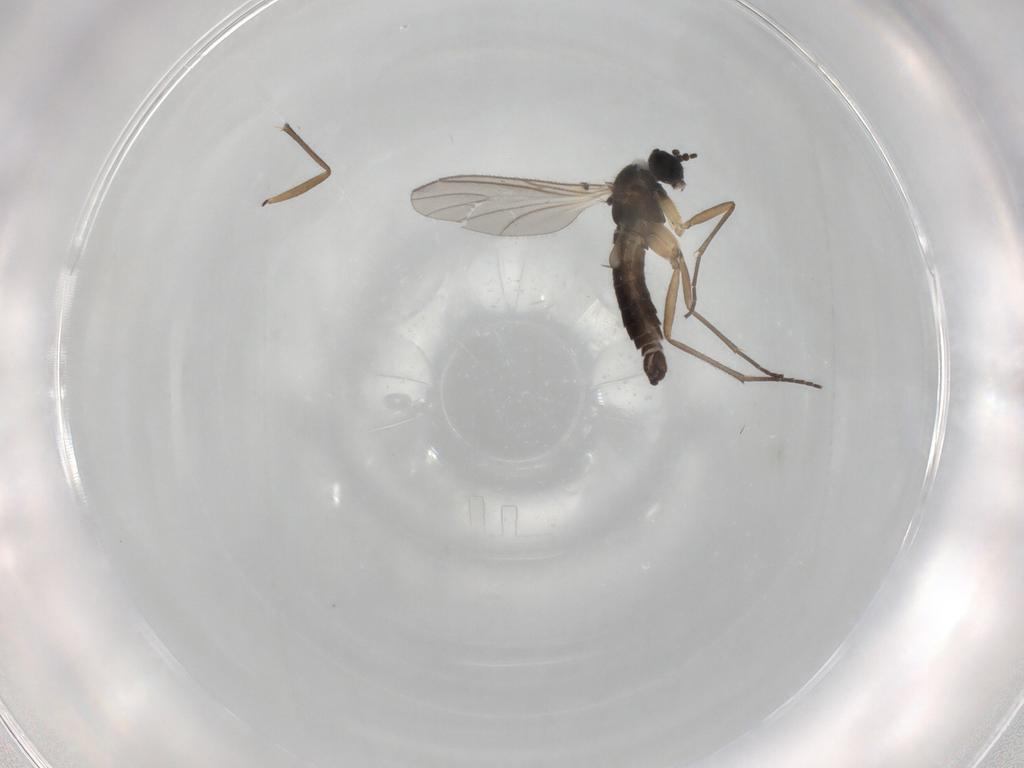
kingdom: Animalia
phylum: Arthropoda
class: Insecta
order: Diptera
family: Sciaridae
